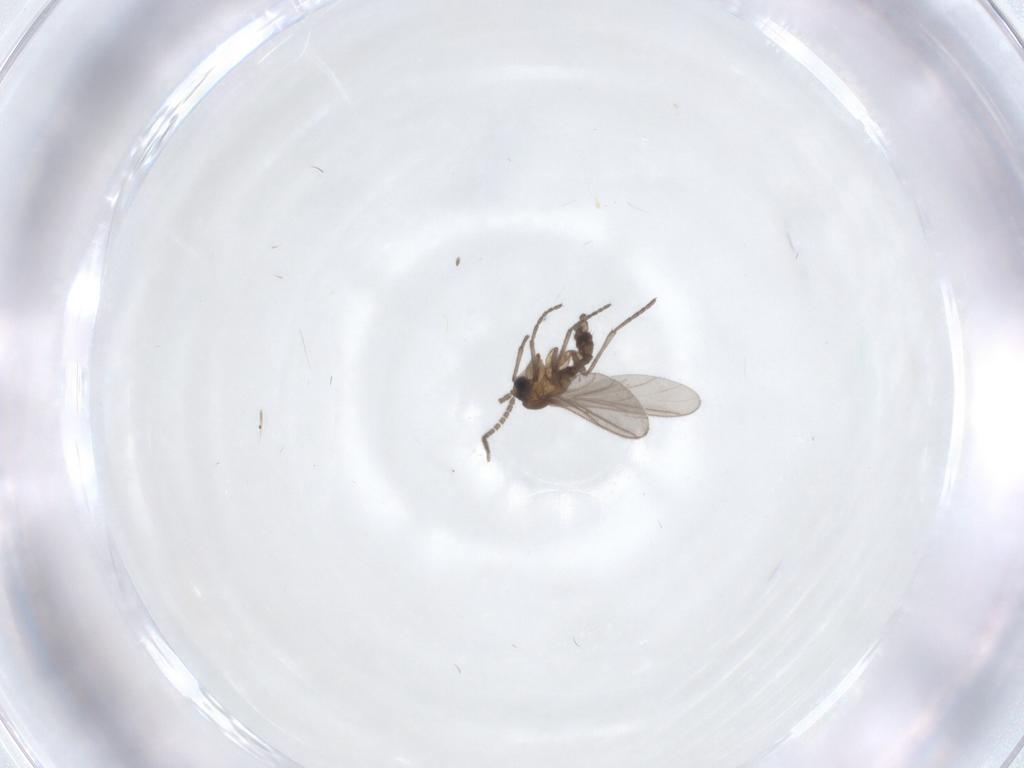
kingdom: Animalia
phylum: Arthropoda
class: Insecta
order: Diptera
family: Sciaridae
